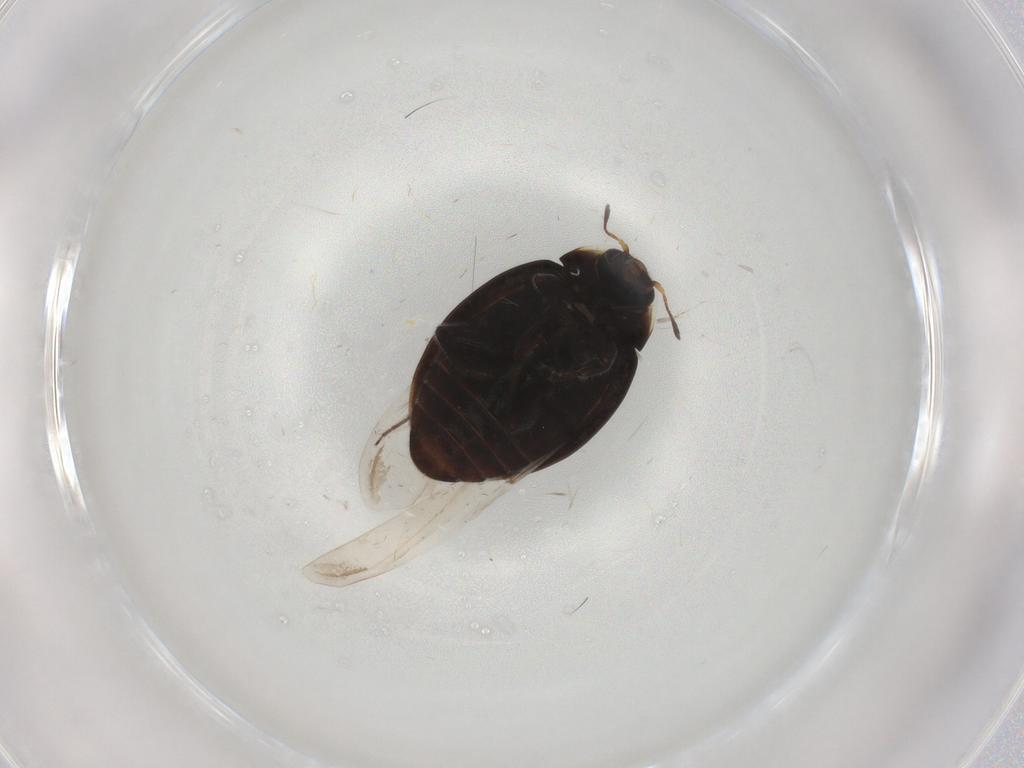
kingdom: Animalia
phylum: Arthropoda
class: Insecta
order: Coleoptera
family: Coccinellidae
